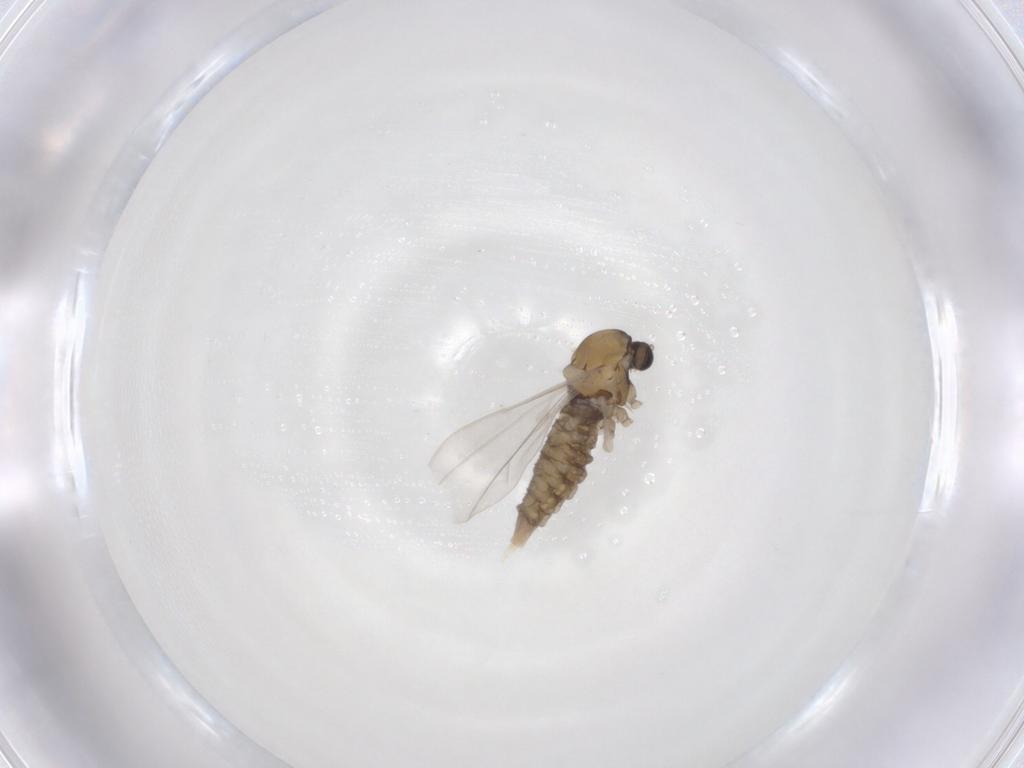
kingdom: Animalia
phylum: Arthropoda
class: Insecta
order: Diptera
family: Cecidomyiidae
